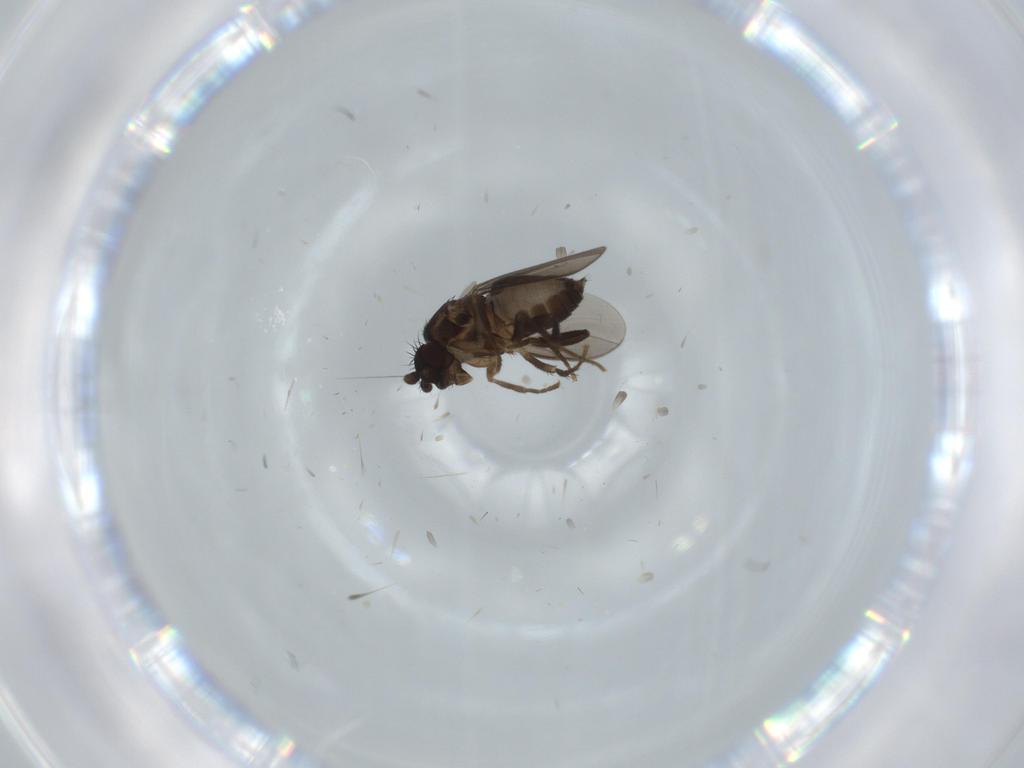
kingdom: Animalia
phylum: Arthropoda
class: Insecta
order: Diptera
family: Sphaeroceridae
